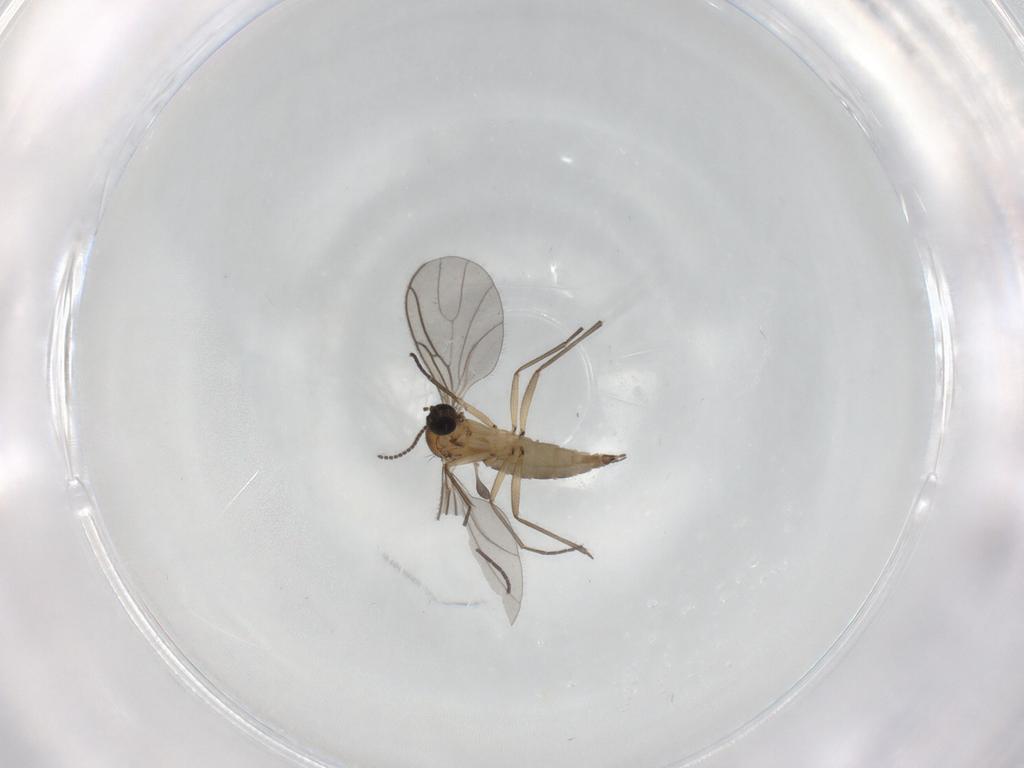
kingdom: Animalia
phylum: Arthropoda
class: Insecta
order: Diptera
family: Sciaridae
